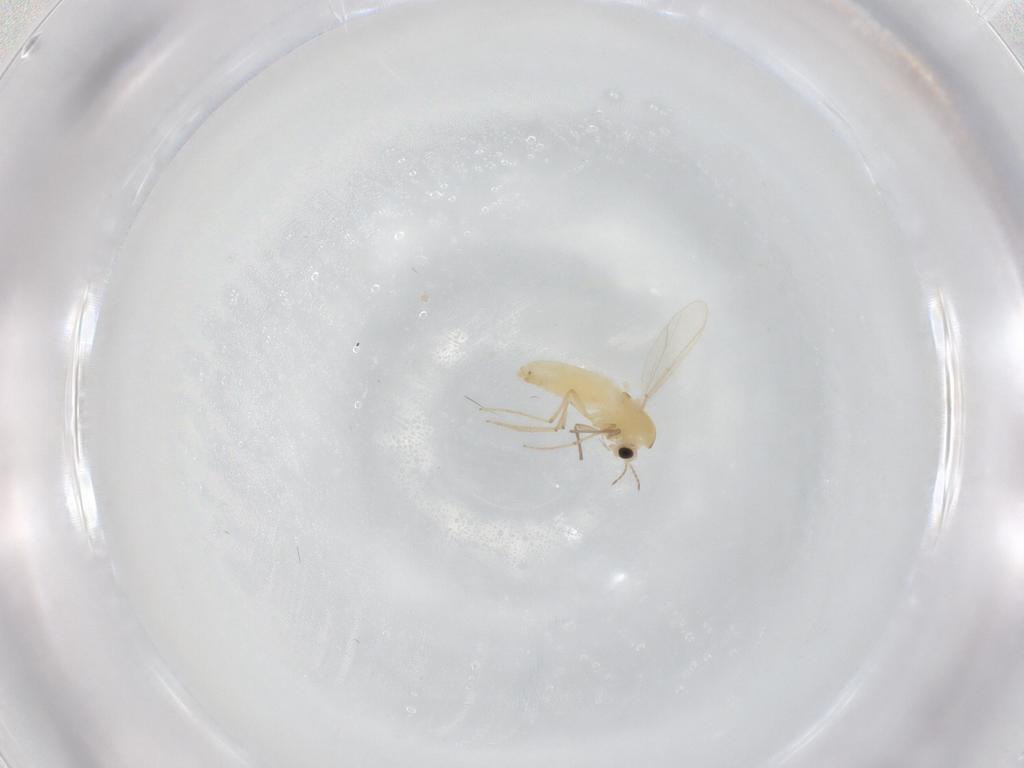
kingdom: Animalia
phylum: Arthropoda
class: Insecta
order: Diptera
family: Chironomidae
